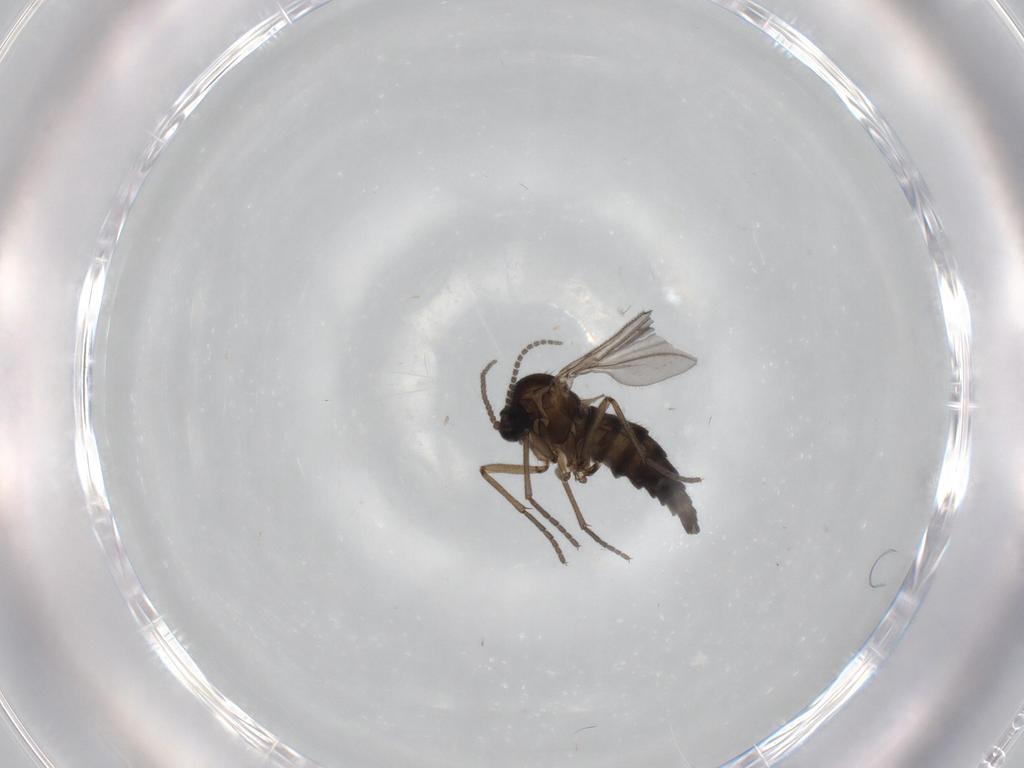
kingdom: Animalia
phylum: Arthropoda
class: Insecta
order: Diptera
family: Sciaridae
